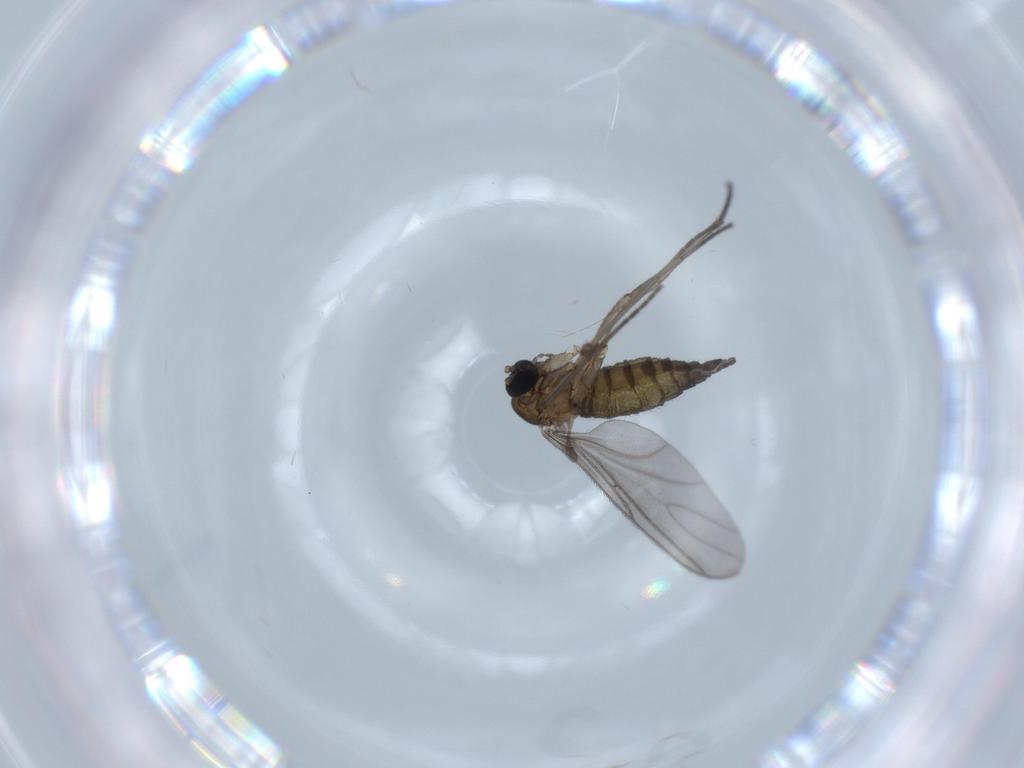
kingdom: Animalia
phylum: Arthropoda
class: Insecta
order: Diptera
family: Sciaridae
